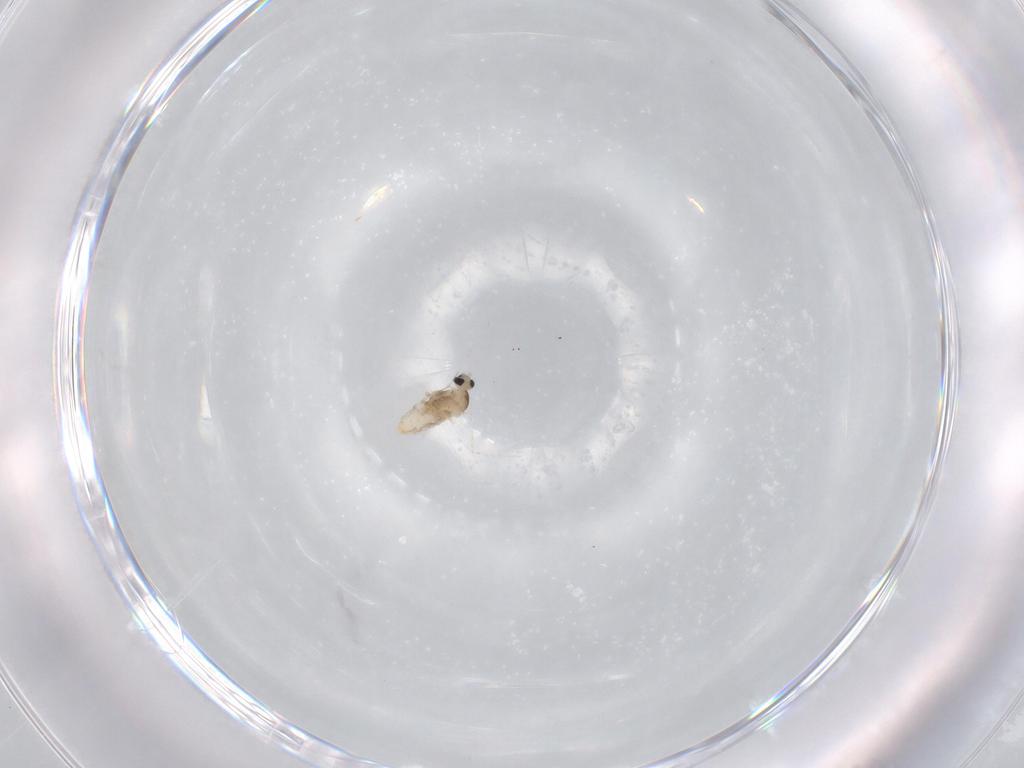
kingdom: Animalia
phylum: Arthropoda
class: Insecta
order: Diptera
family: Cecidomyiidae
